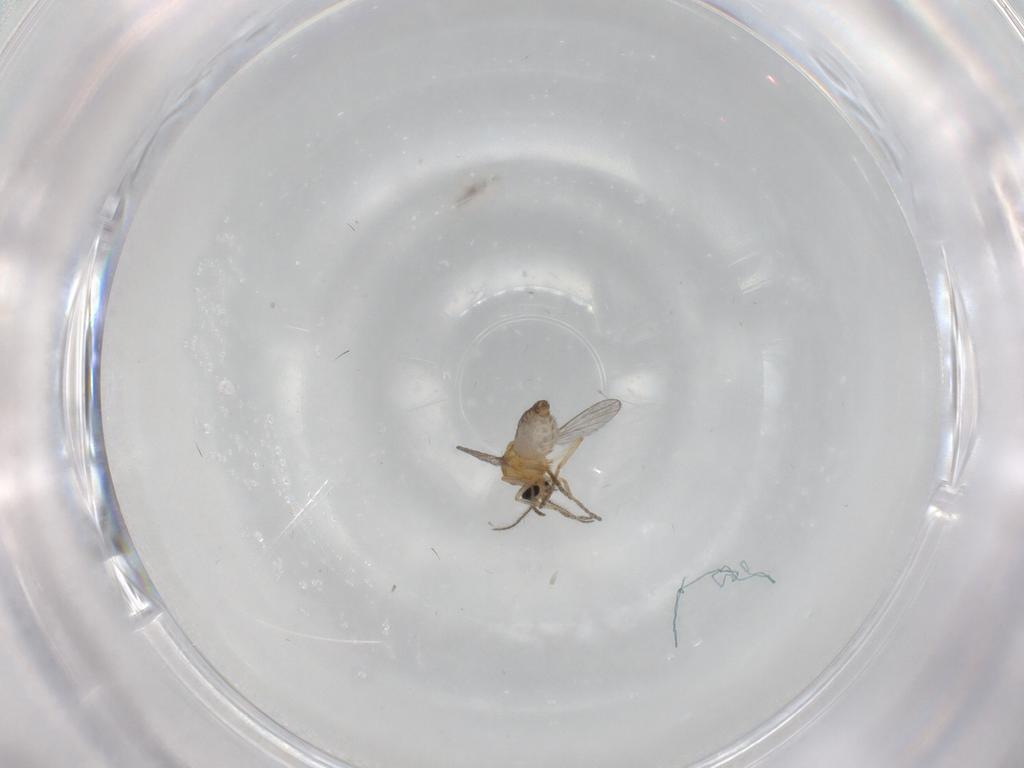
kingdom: Animalia
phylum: Arthropoda
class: Insecta
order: Diptera
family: Ceratopogonidae
